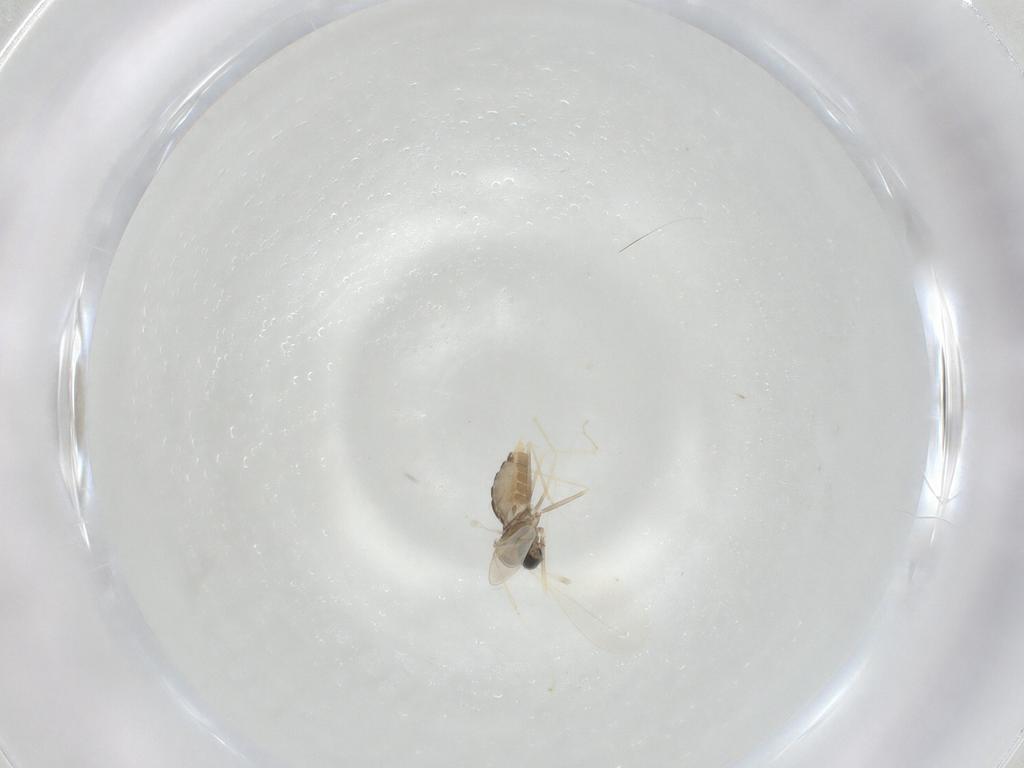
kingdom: Animalia
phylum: Arthropoda
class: Insecta
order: Diptera
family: Cecidomyiidae
